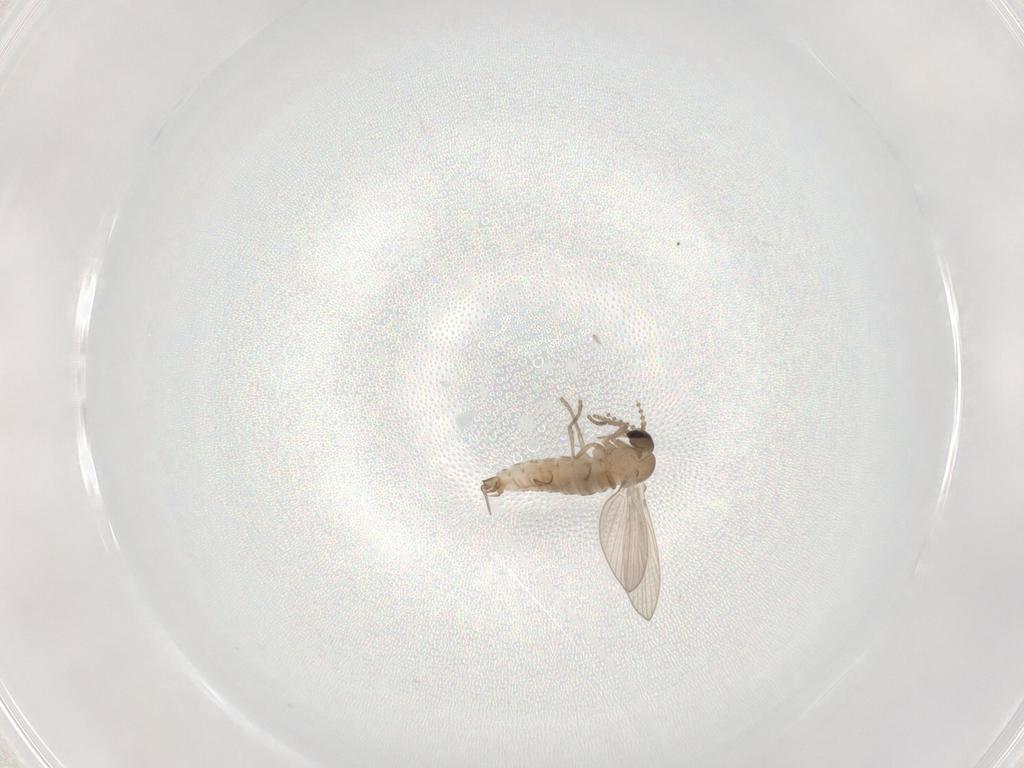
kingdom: Animalia
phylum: Arthropoda
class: Insecta
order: Diptera
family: Psychodidae
